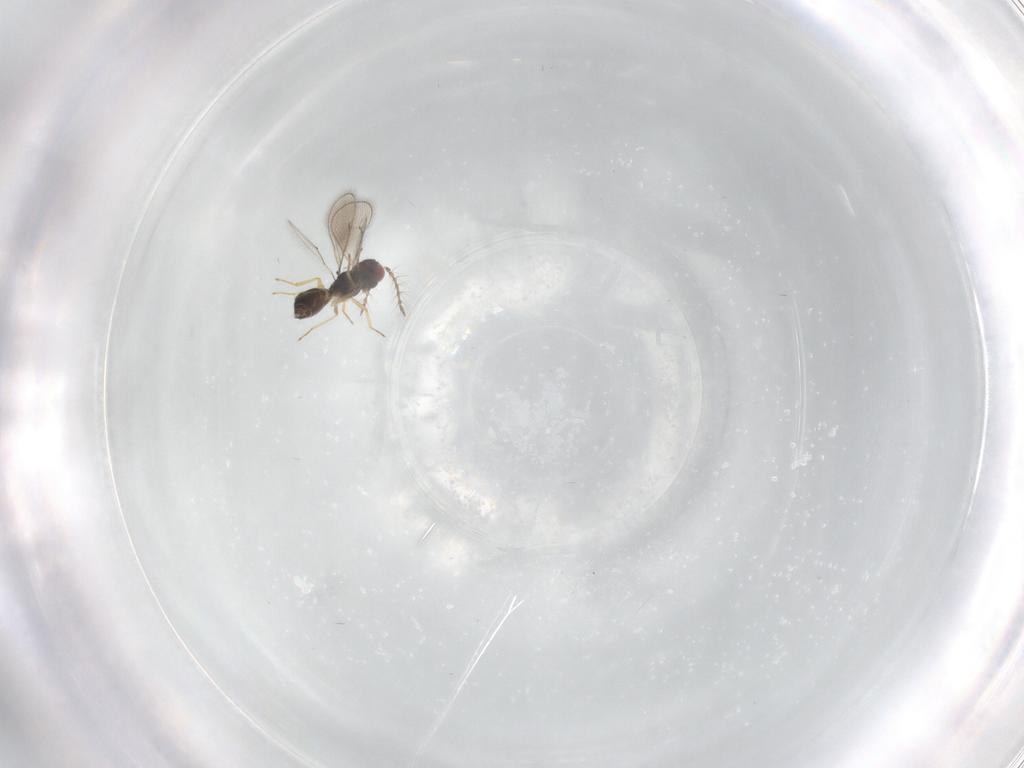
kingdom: Animalia
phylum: Arthropoda
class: Insecta
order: Hymenoptera
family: Eulophidae
